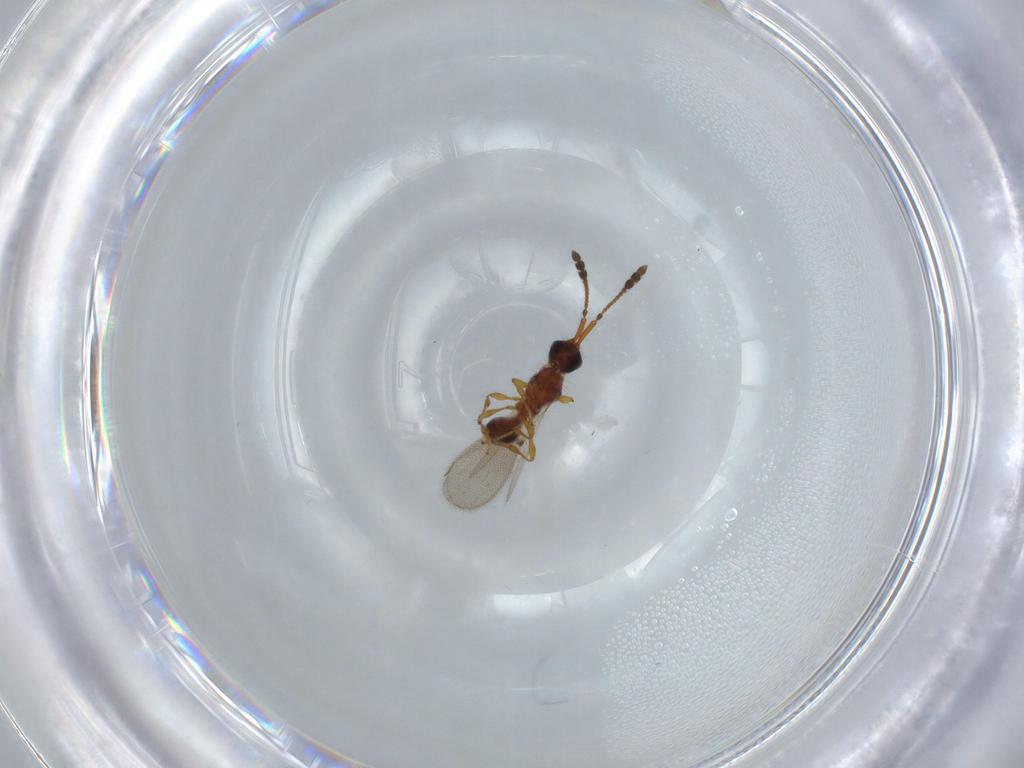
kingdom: Animalia
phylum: Arthropoda
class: Insecta
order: Hymenoptera
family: Diapriidae
